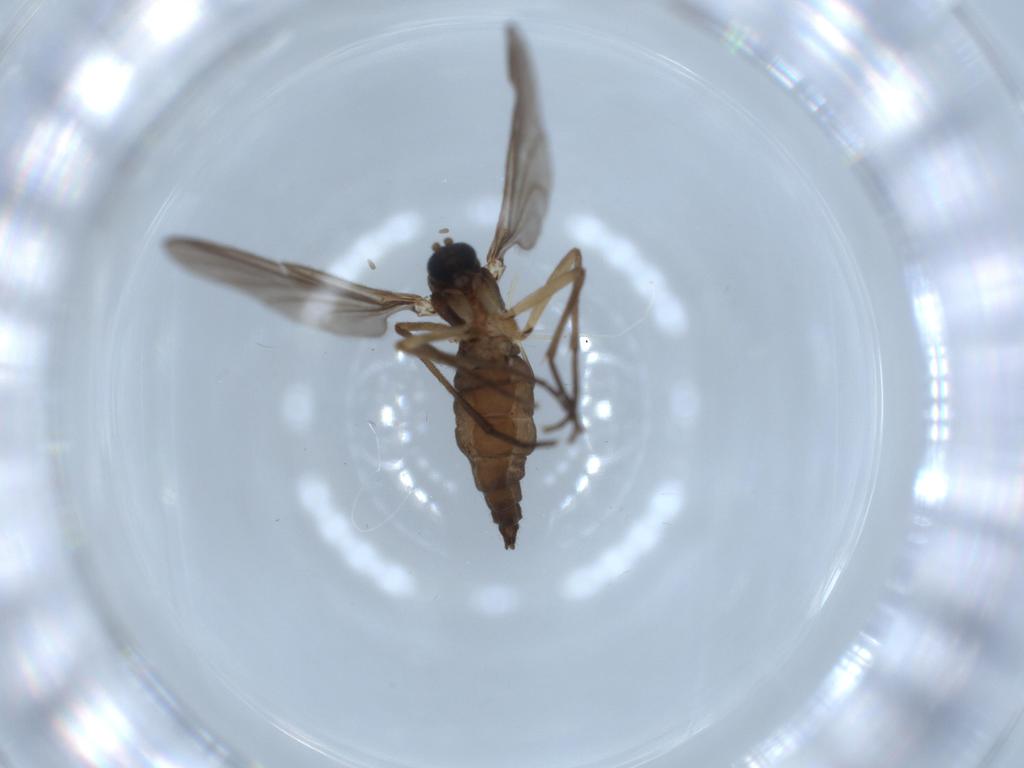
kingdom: Animalia
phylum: Arthropoda
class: Insecta
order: Diptera
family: Sciaridae
